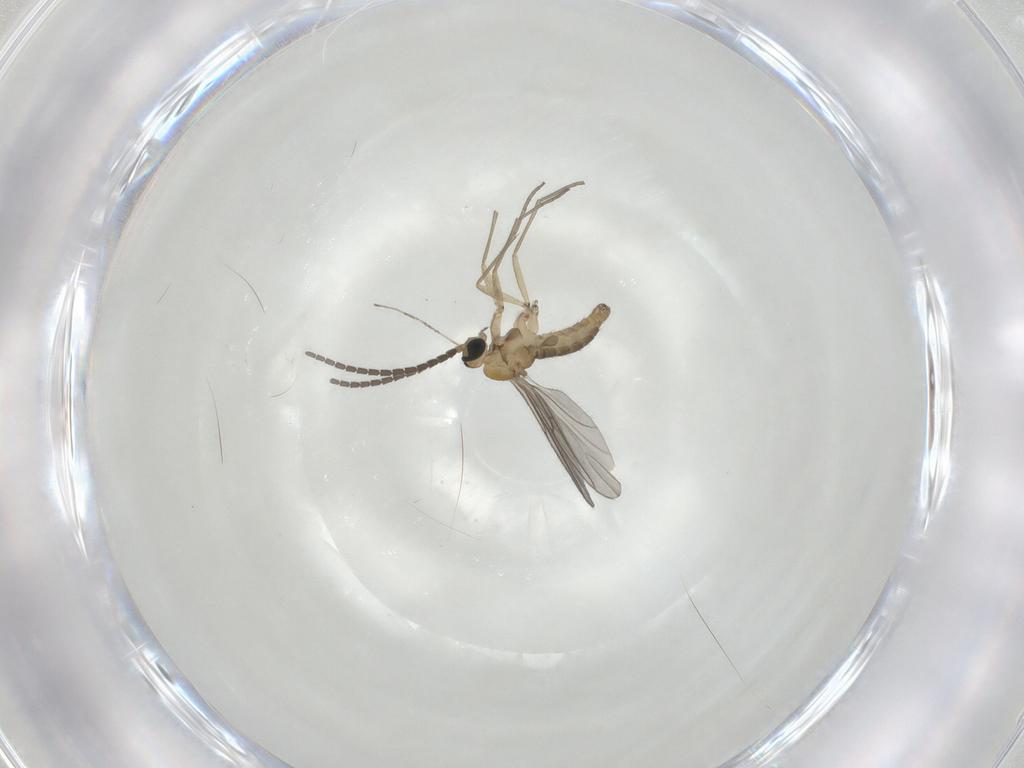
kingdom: Animalia
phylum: Arthropoda
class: Insecta
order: Diptera
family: Sciaridae
